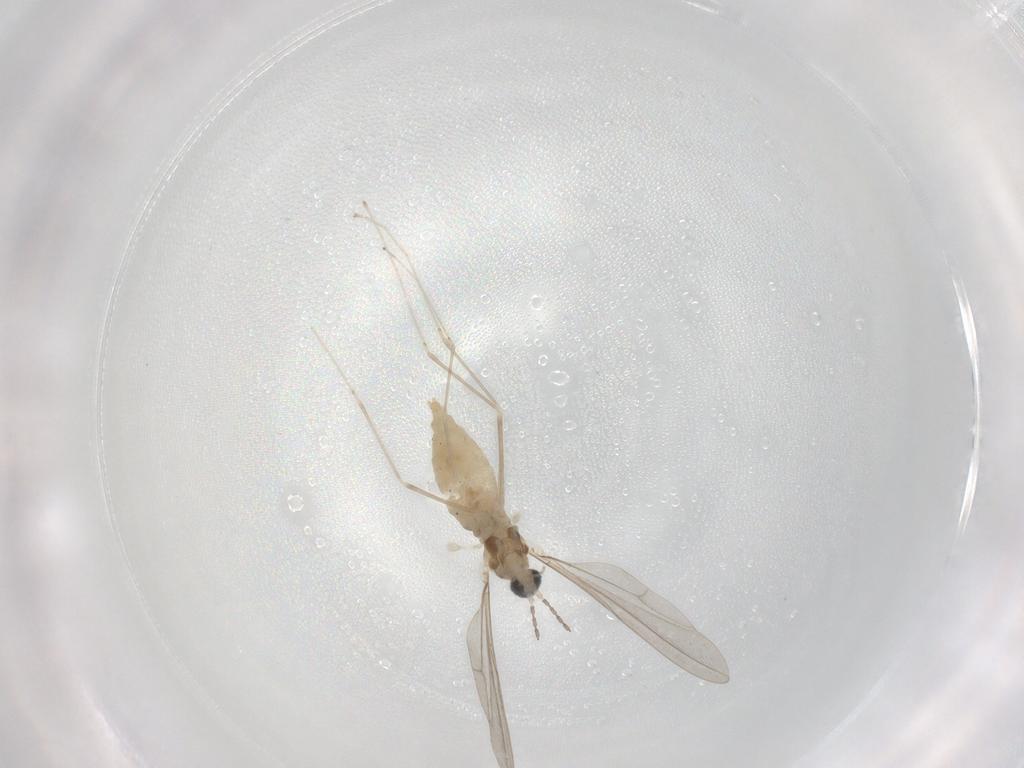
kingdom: Animalia
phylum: Arthropoda
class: Insecta
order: Diptera
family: Cecidomyiidae
